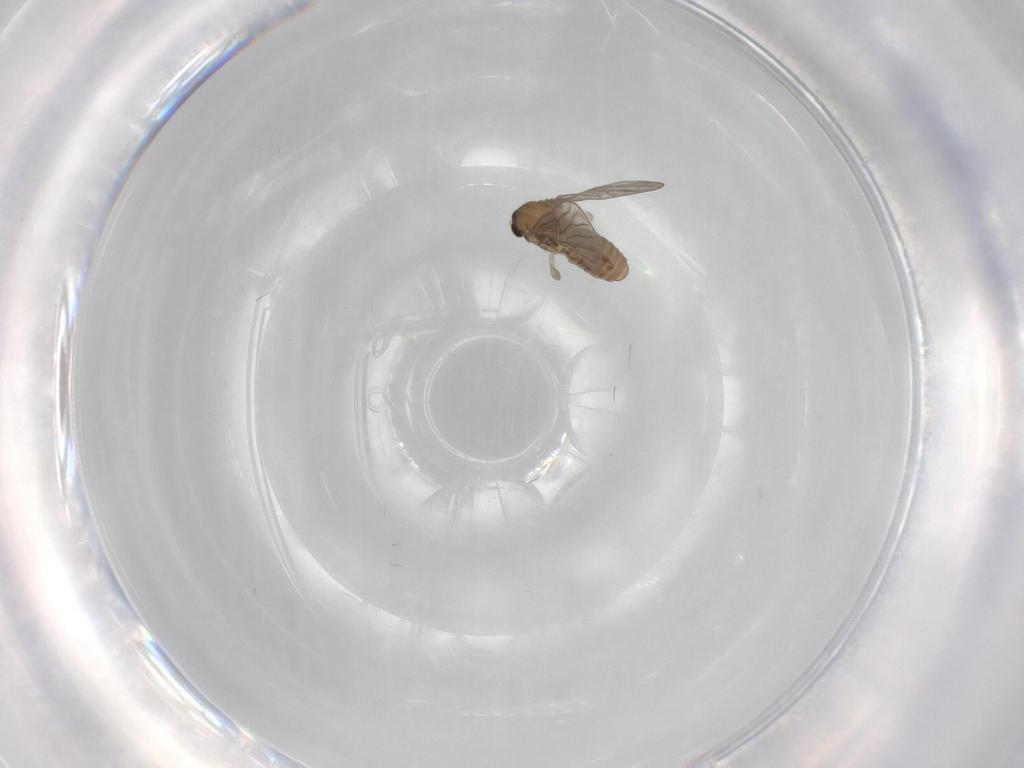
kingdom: Animalia
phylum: Arthropoda
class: Insecta
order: Diptera
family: Psychodidae
